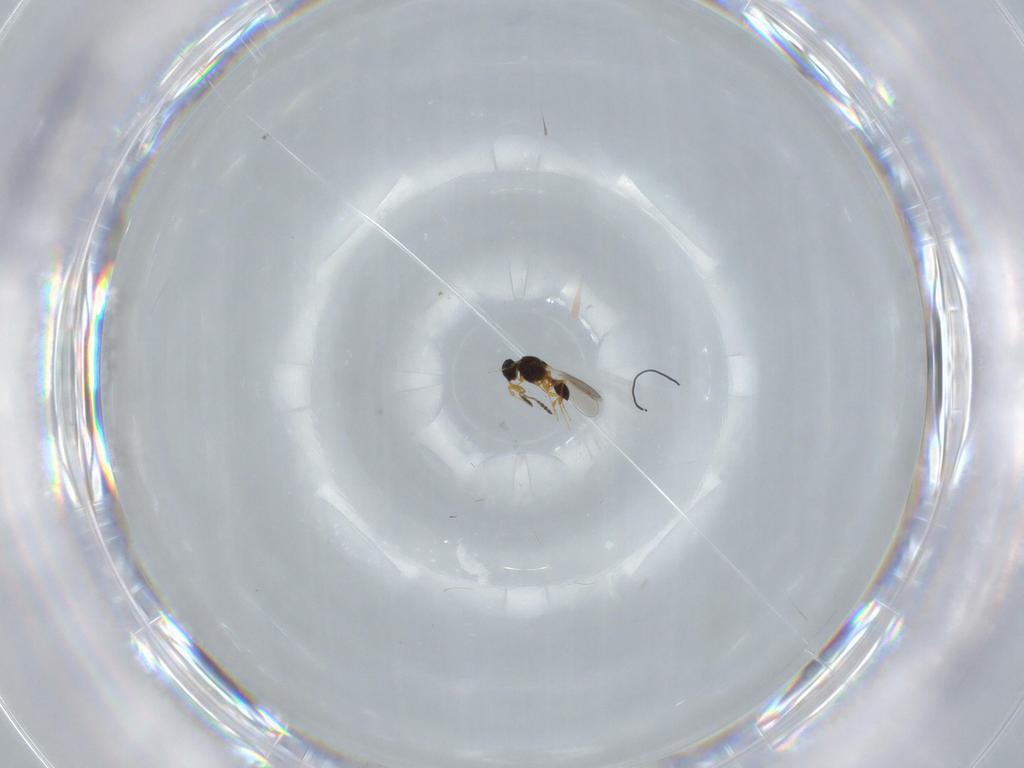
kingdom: Animalia
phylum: Arthropoda
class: Insecta
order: Hymenoptera
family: Platygastridae
